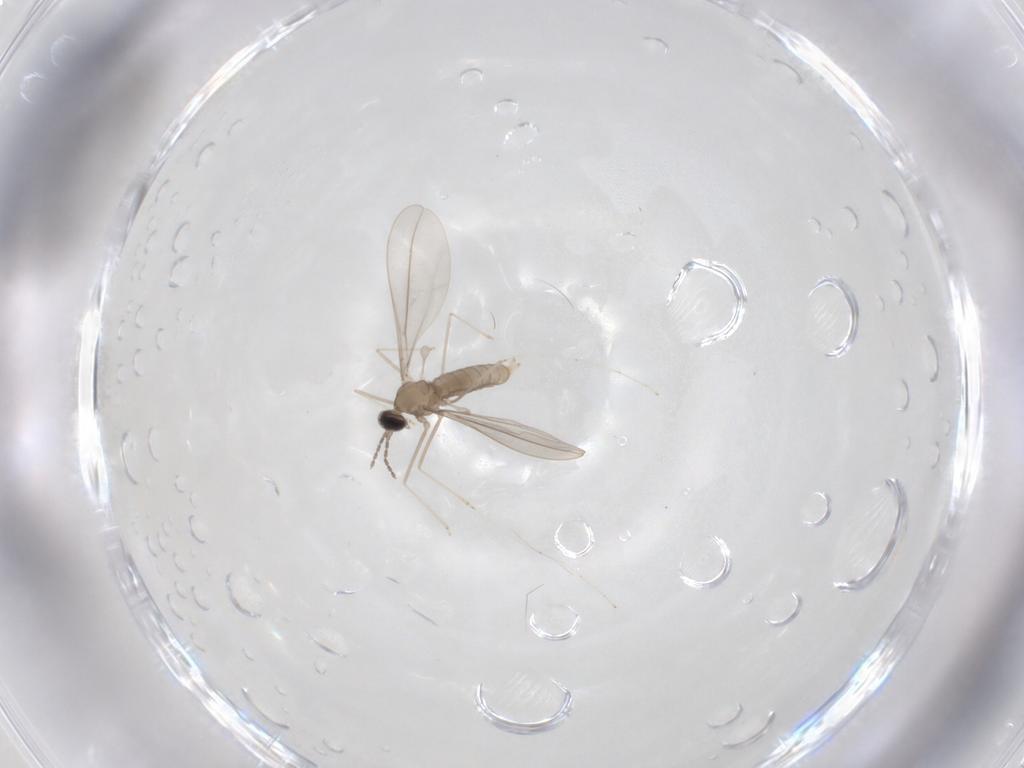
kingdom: Animalia
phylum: Arthropoda
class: Insecta
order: Diptera
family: Cecidomyiidae
